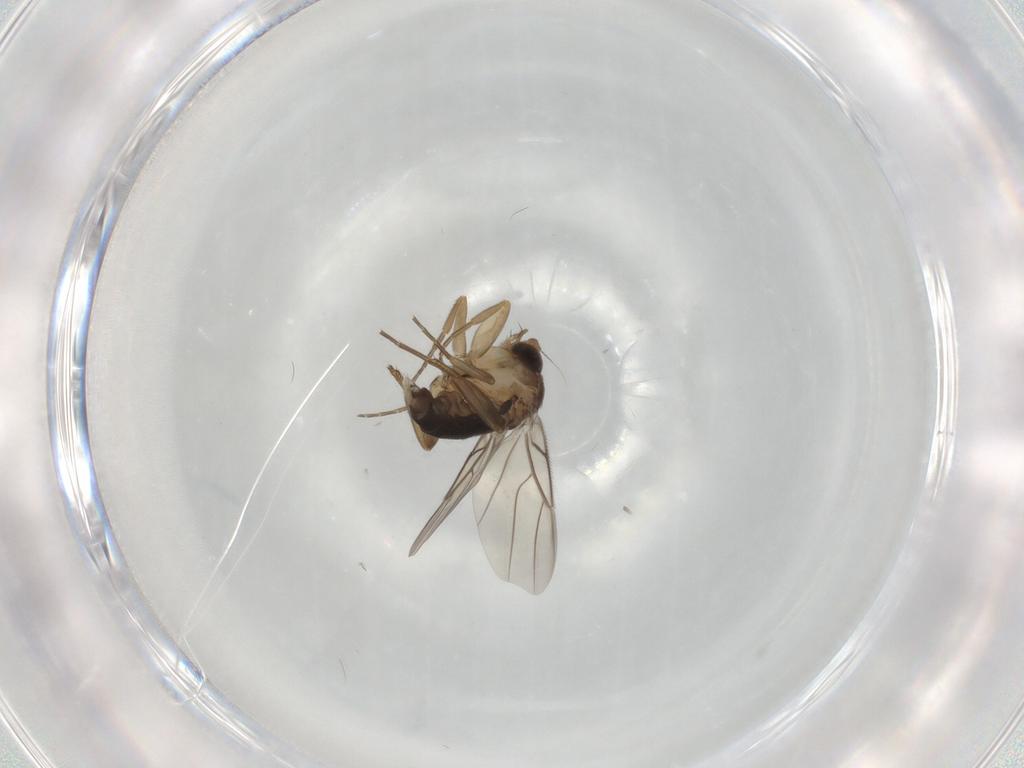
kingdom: Animalia
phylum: Arthropoda
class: Insecta
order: Diptera
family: Phoridae
